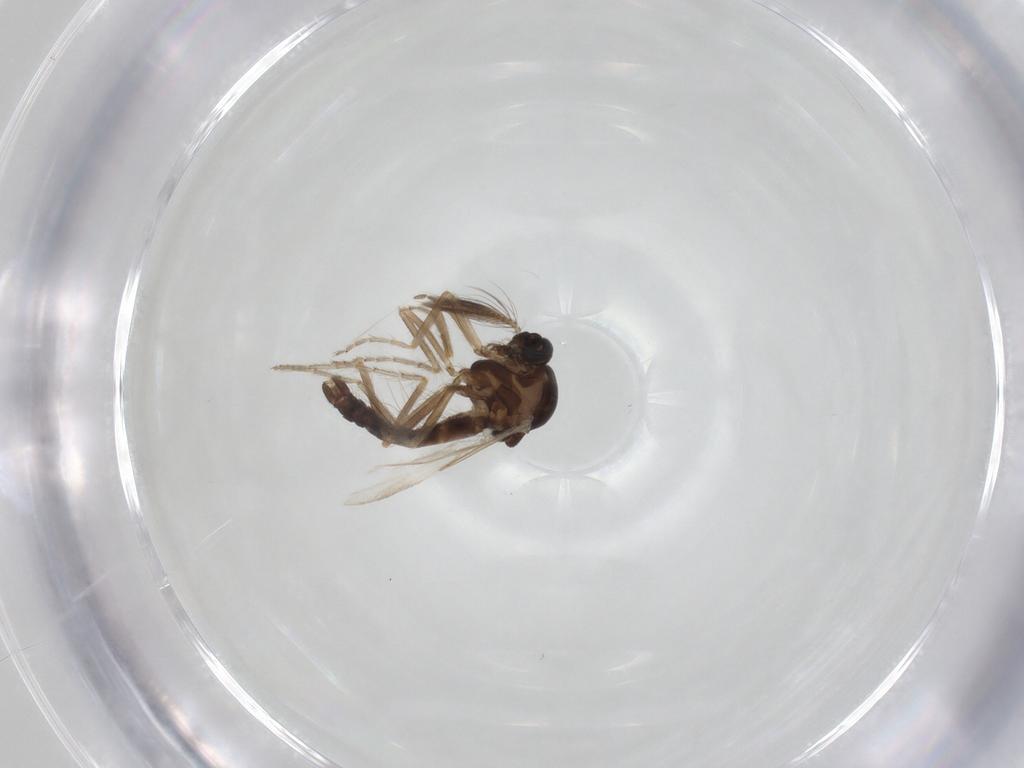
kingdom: Animalia
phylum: Arthropoda
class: Insecta
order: Diptera
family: Ceratopogonidae
